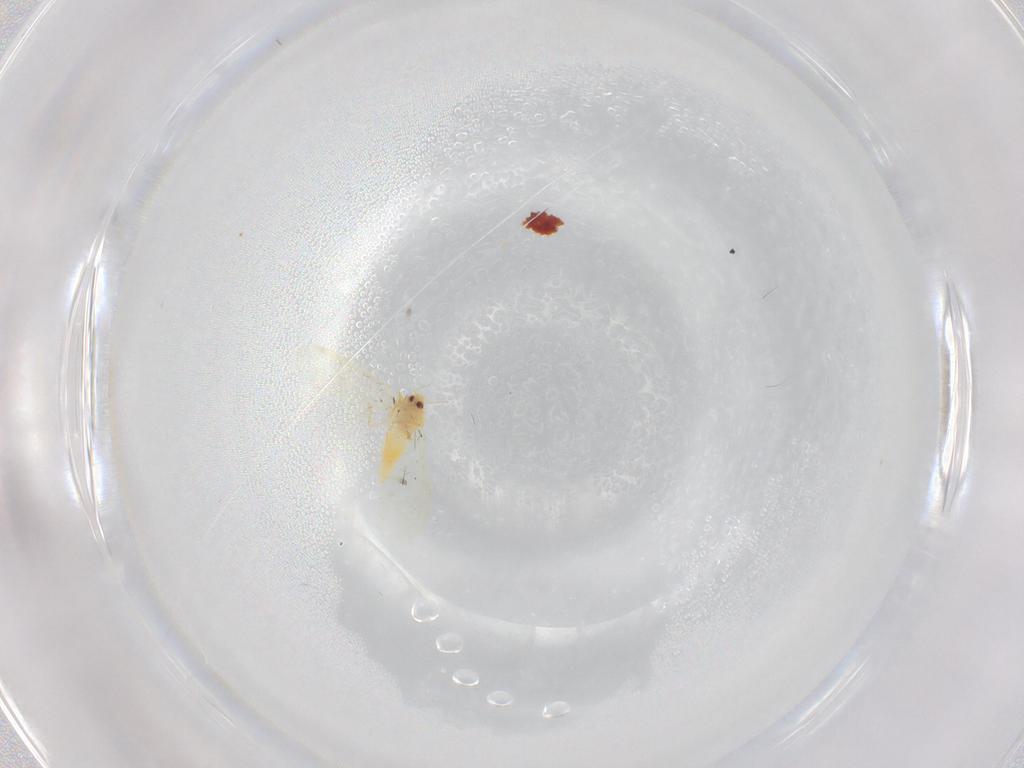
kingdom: Animalia
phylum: Arthropoda
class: Insecta
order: Hemiptera
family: Aleyrodidae
